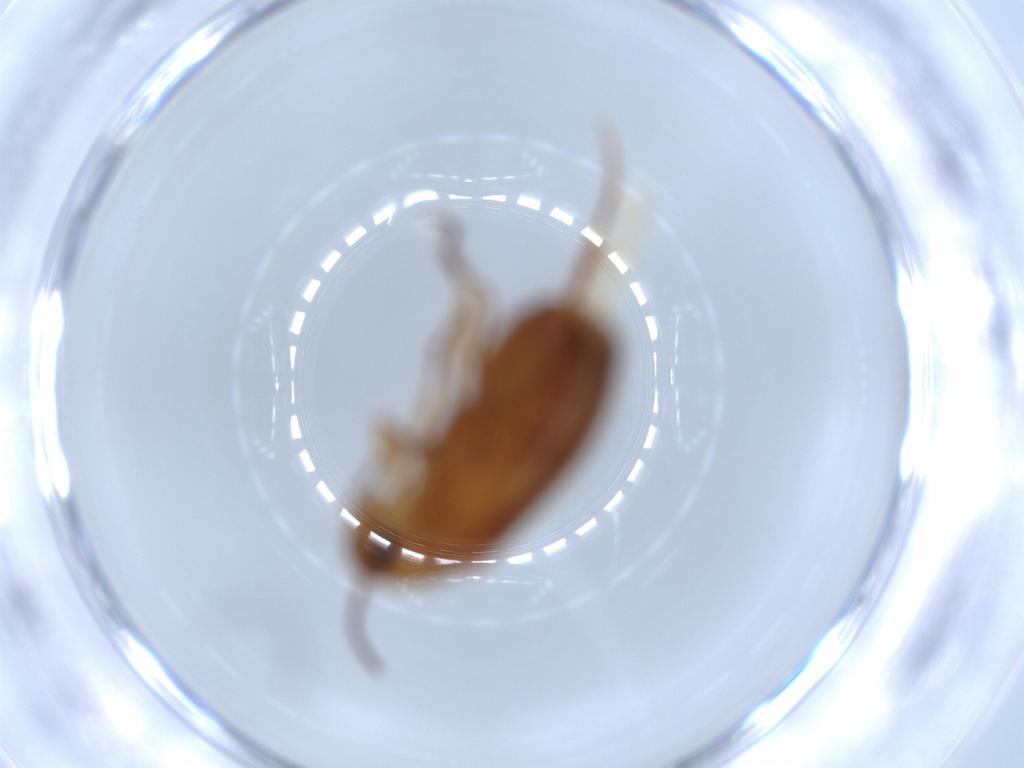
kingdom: Animalia
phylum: Arthropoda
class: Insecta
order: Coleoptera
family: Scraptiidae
